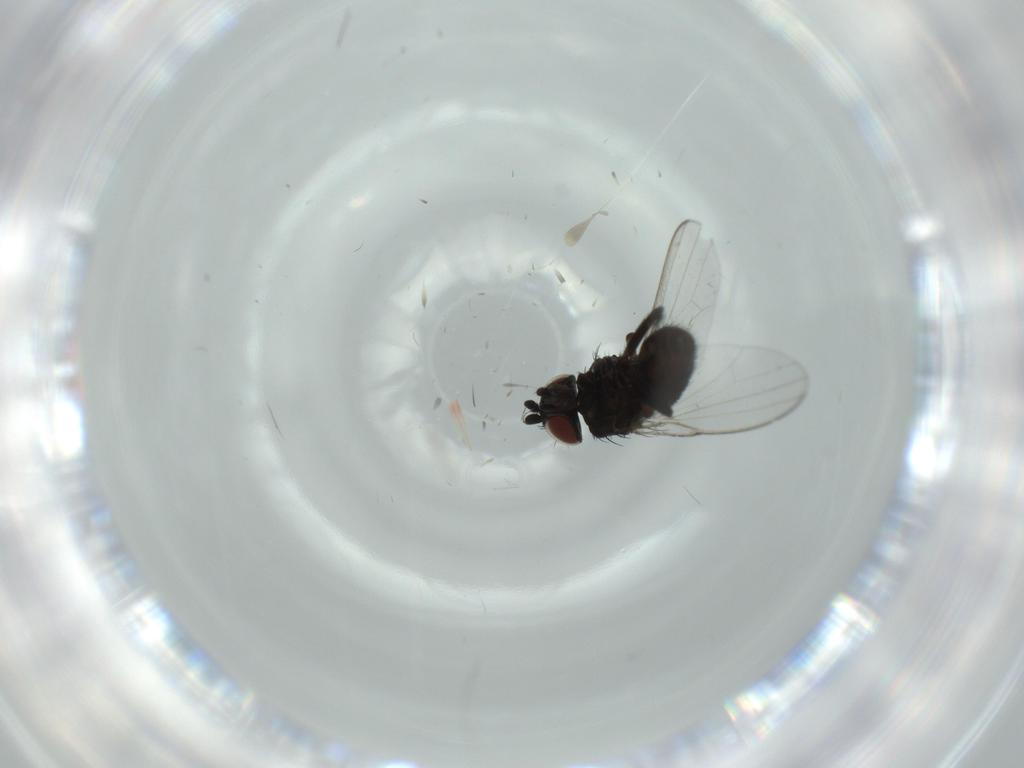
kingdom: Animalia
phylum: Arthropoda
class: Insecta
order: Diptera
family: Milichiidae
